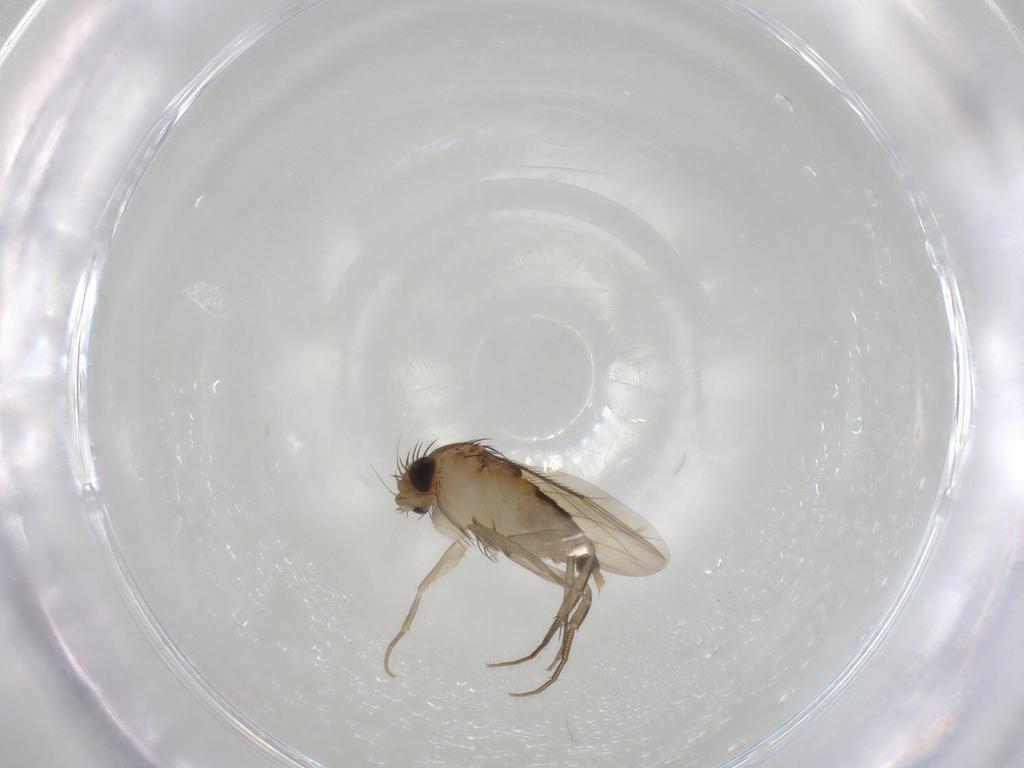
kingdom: Animalia
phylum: Arthropoda
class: Insecta
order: Diptera
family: Phoridae
